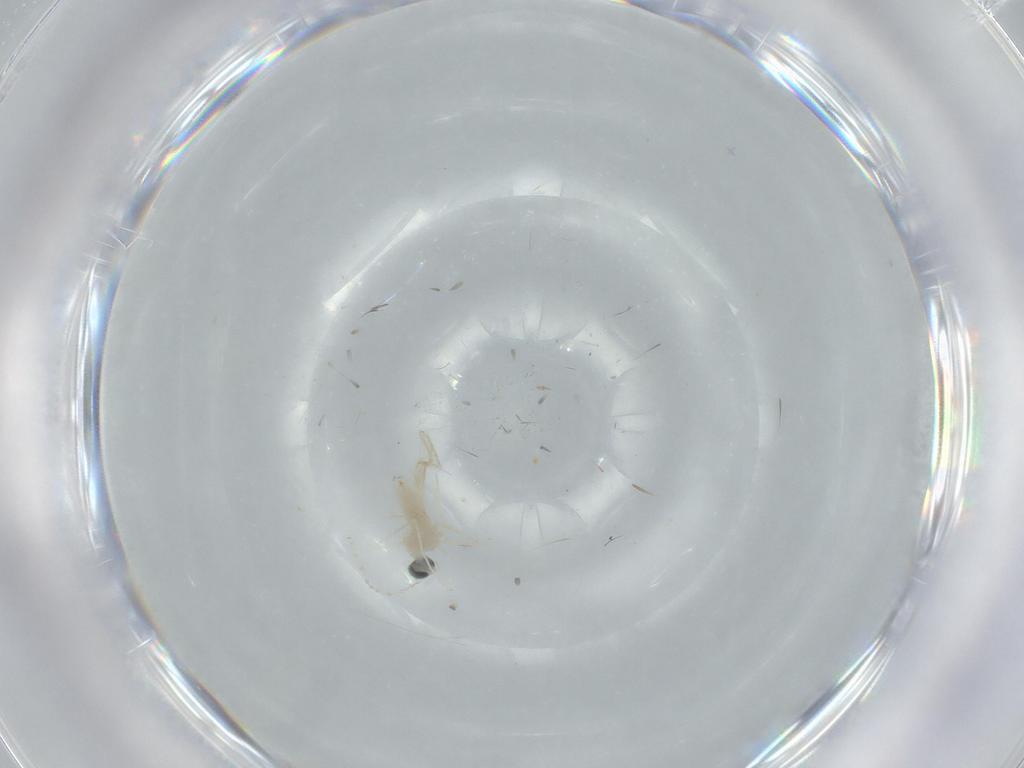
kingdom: Animalia
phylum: Arthropoda
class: Insecta
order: Diptera
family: Cecidomyiidae
